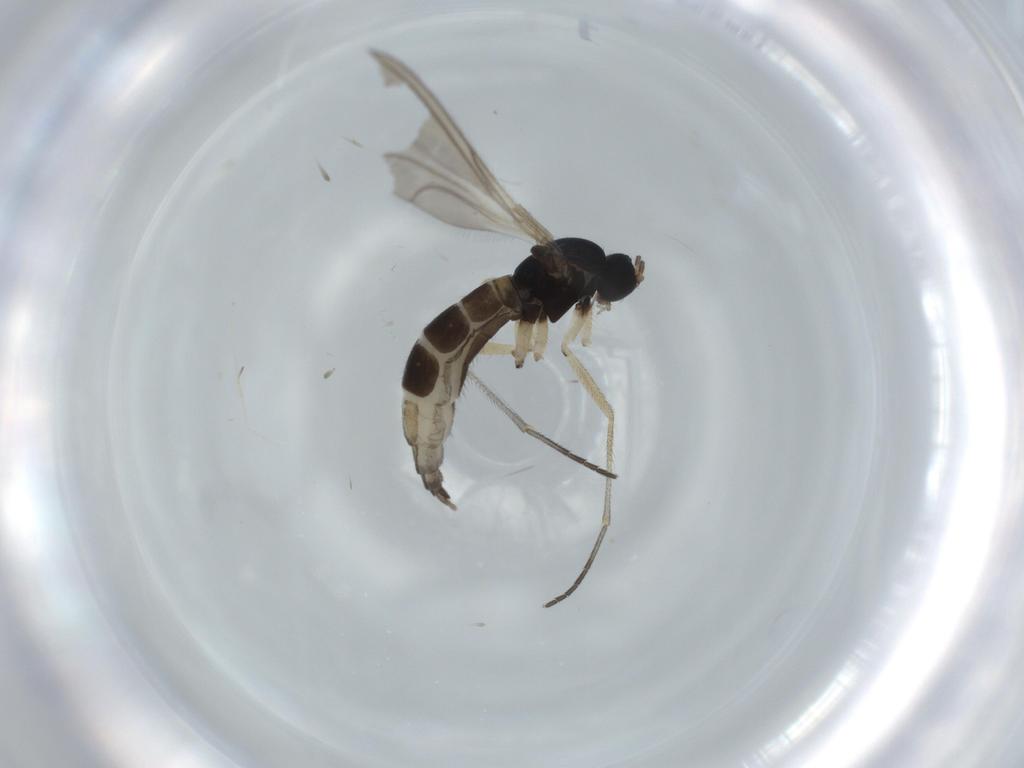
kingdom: Animalia
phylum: Arthropoda
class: Insecta
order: Diptera
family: Sciaridae
